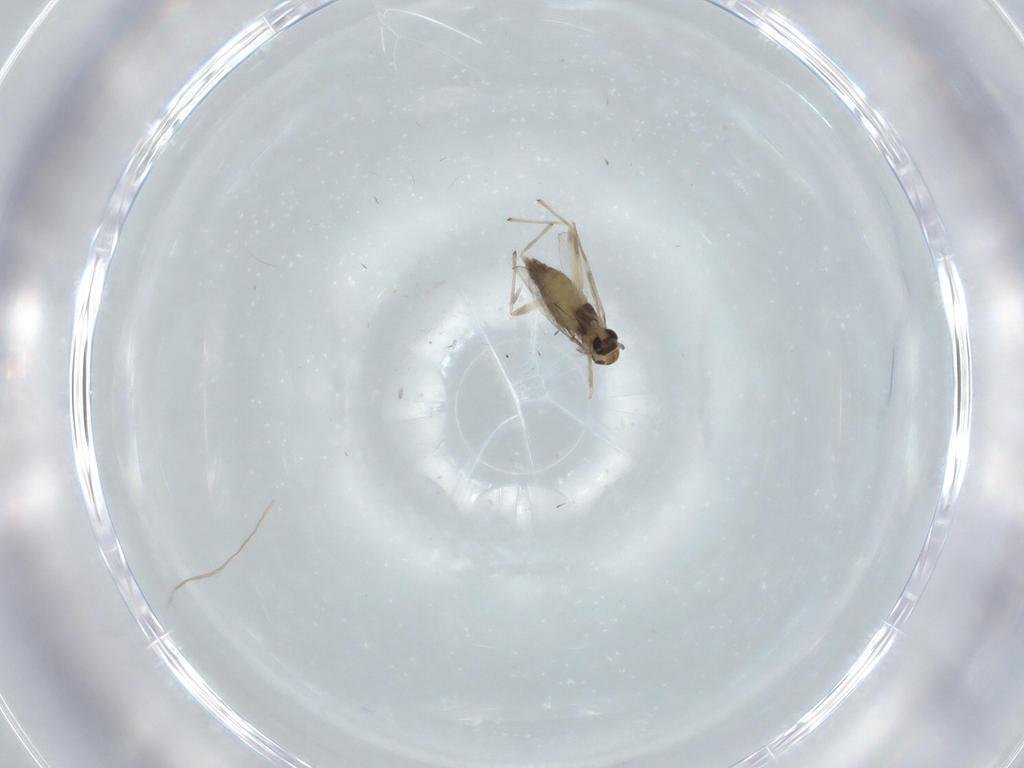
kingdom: Animalia
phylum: Arthropoda
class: Insecta
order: Diptera
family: Chironomidae
